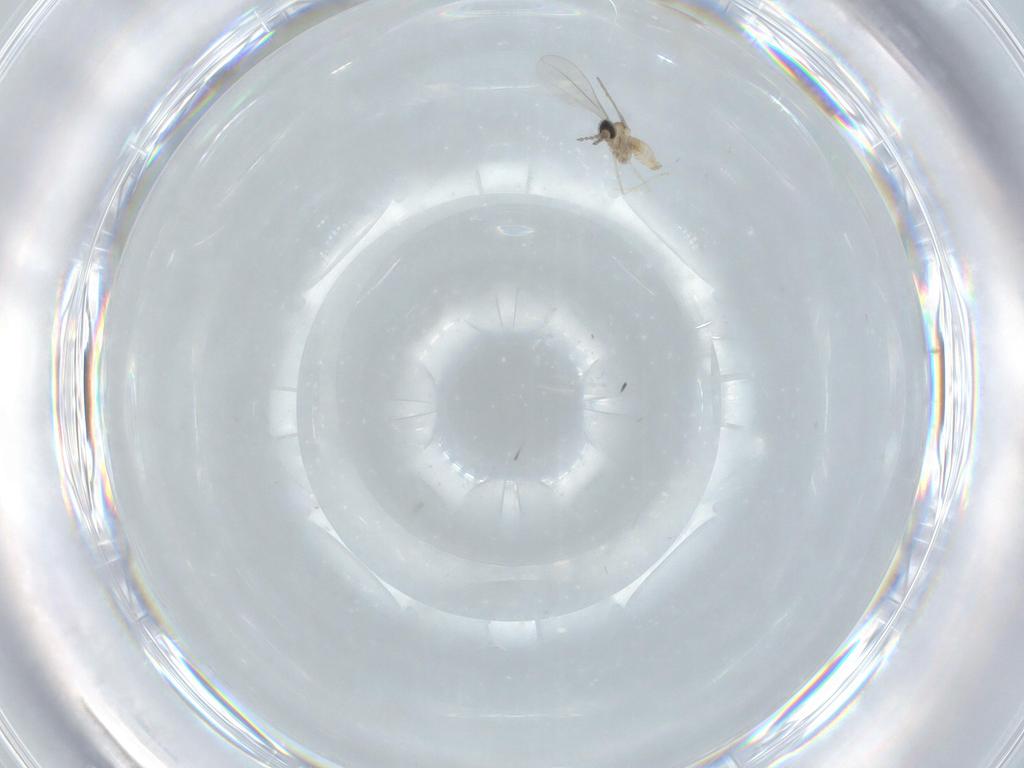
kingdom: Animalia
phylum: Arthropoda
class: Insecta
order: Diptera
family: Cecidomyiidae
